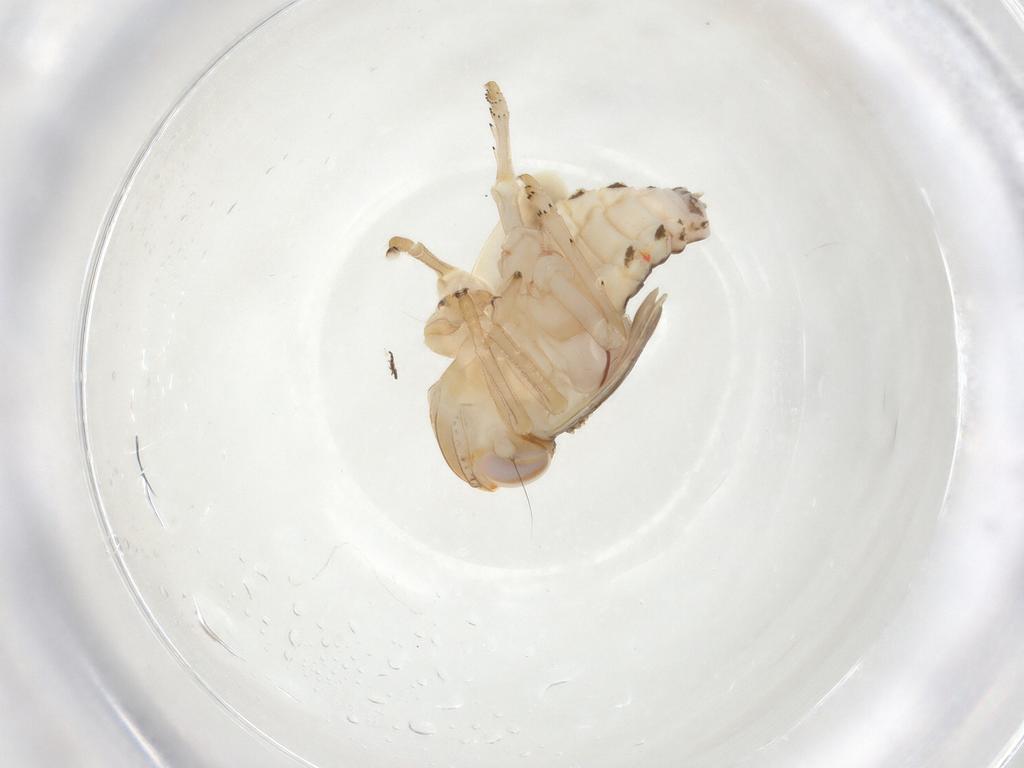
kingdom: Animalia
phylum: Arthropoda
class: Insecta
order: Hemiptera
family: Nogodinidae
